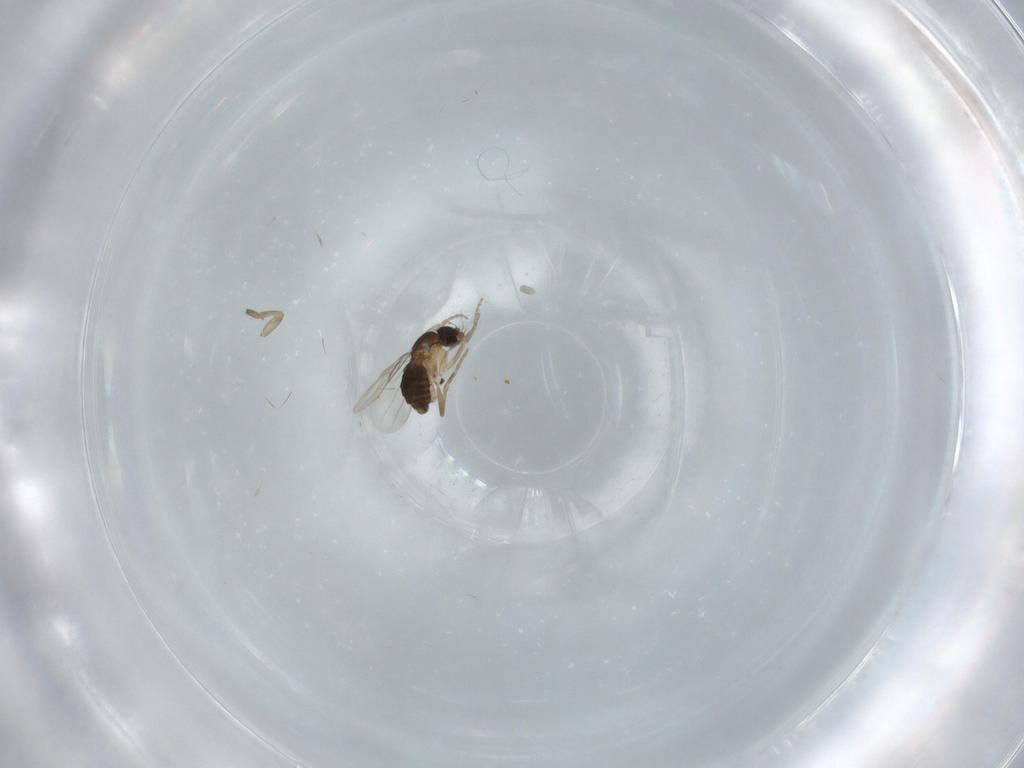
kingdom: Animalia
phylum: Arthropoda
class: Insecta
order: Diptera
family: Phoridae
